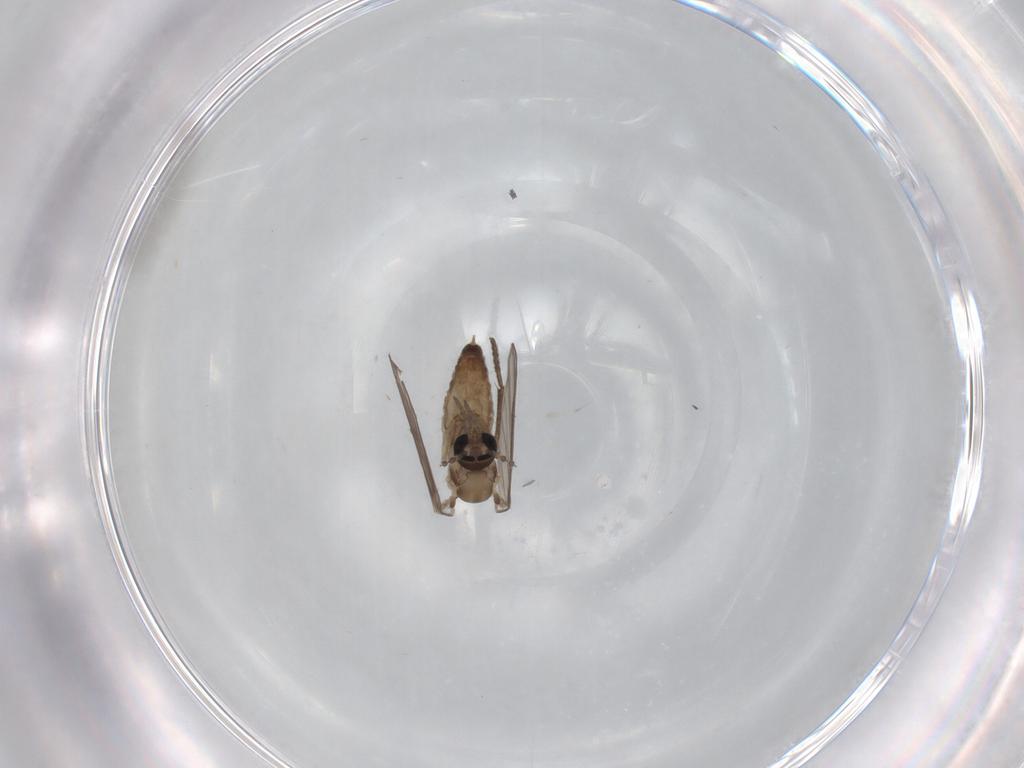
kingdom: Animalia
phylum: Arthropoda
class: Insecta
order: Diptera
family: Psychodidae
